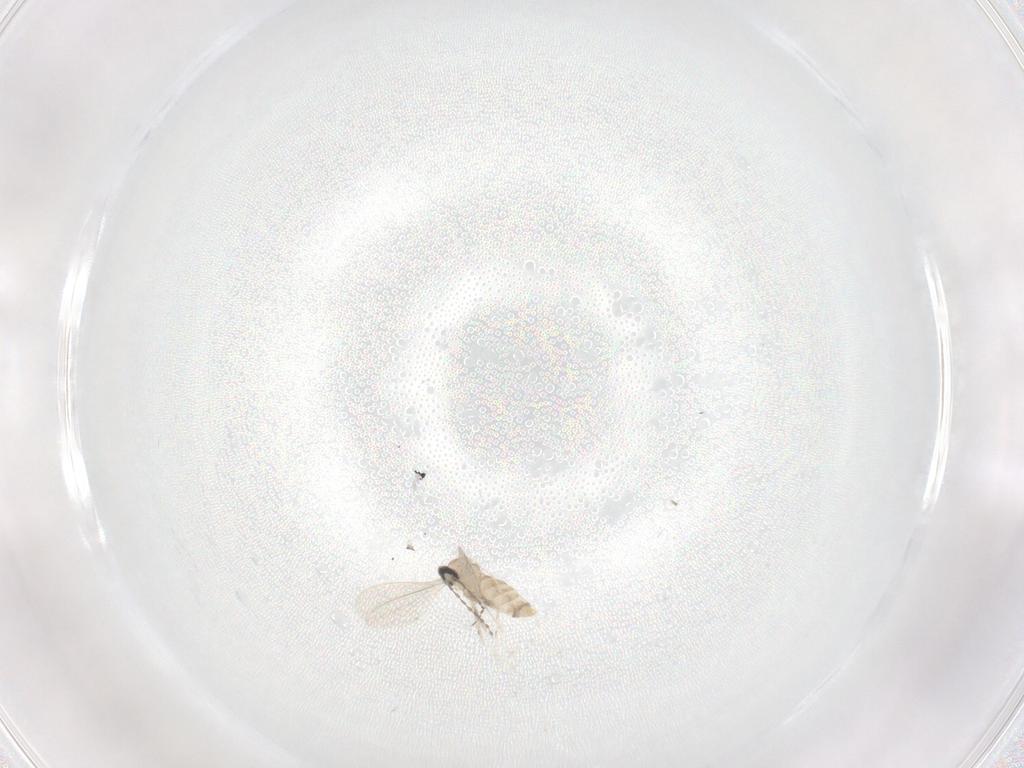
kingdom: Animalia
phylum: Arthropoda
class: Insecta
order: Diptera
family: Cecidomyiidae
